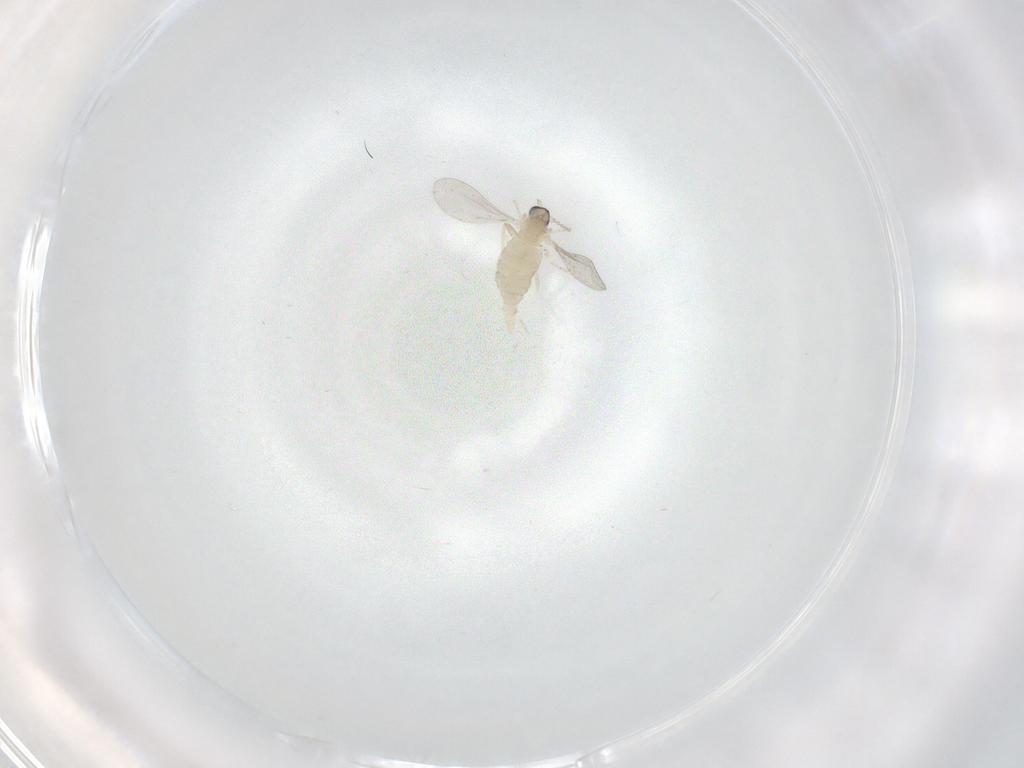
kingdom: Animalia
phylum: Arthropoda
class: Insecta
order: Diptera
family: Cecidomyiidae
